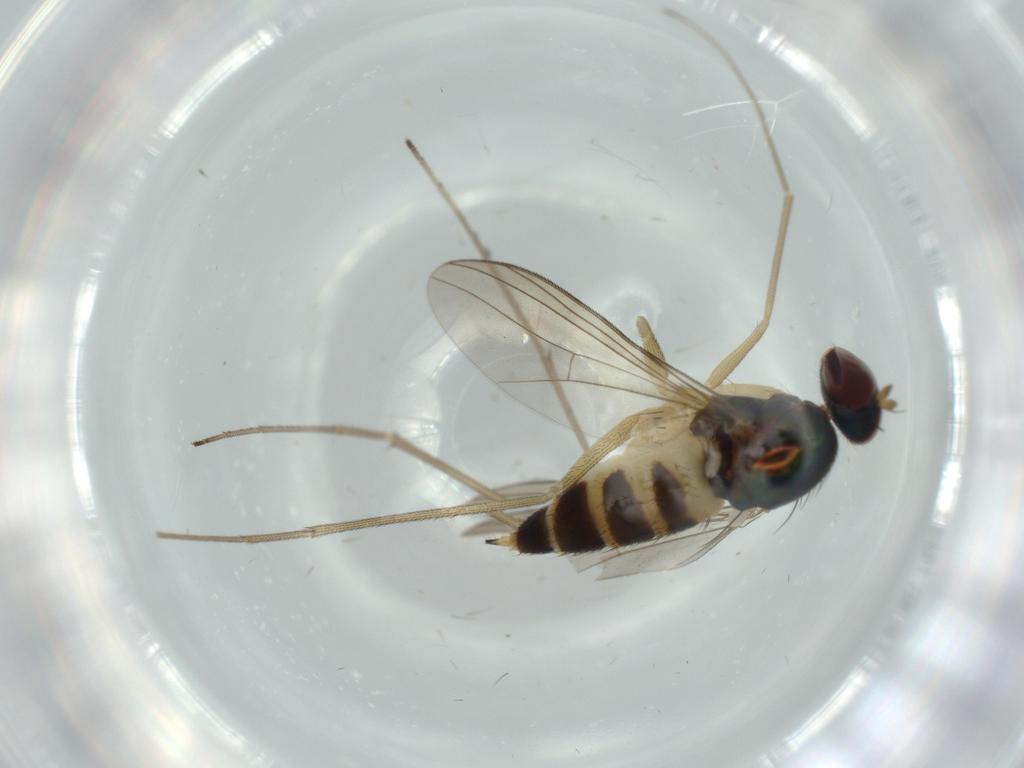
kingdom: Animalia
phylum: Arthropoda
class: Insecta
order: Diptera
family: Dolichopodidae
